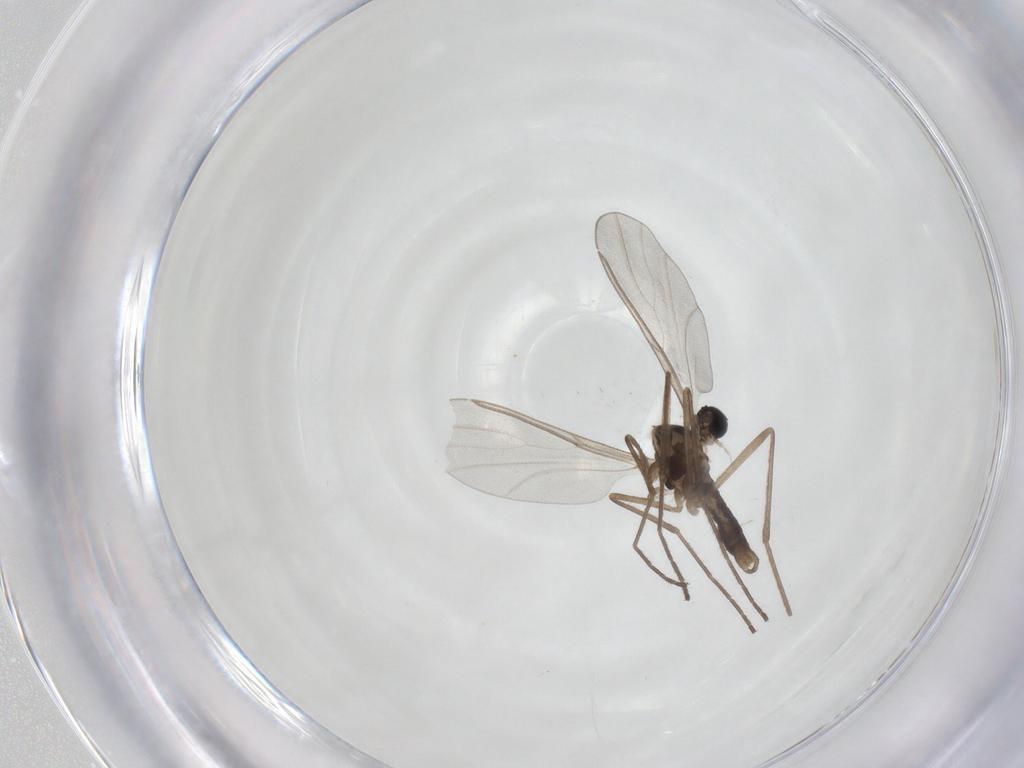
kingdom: Animalia
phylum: Arthropoda
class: Insecta
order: Diptera
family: Cecidomyiidae
